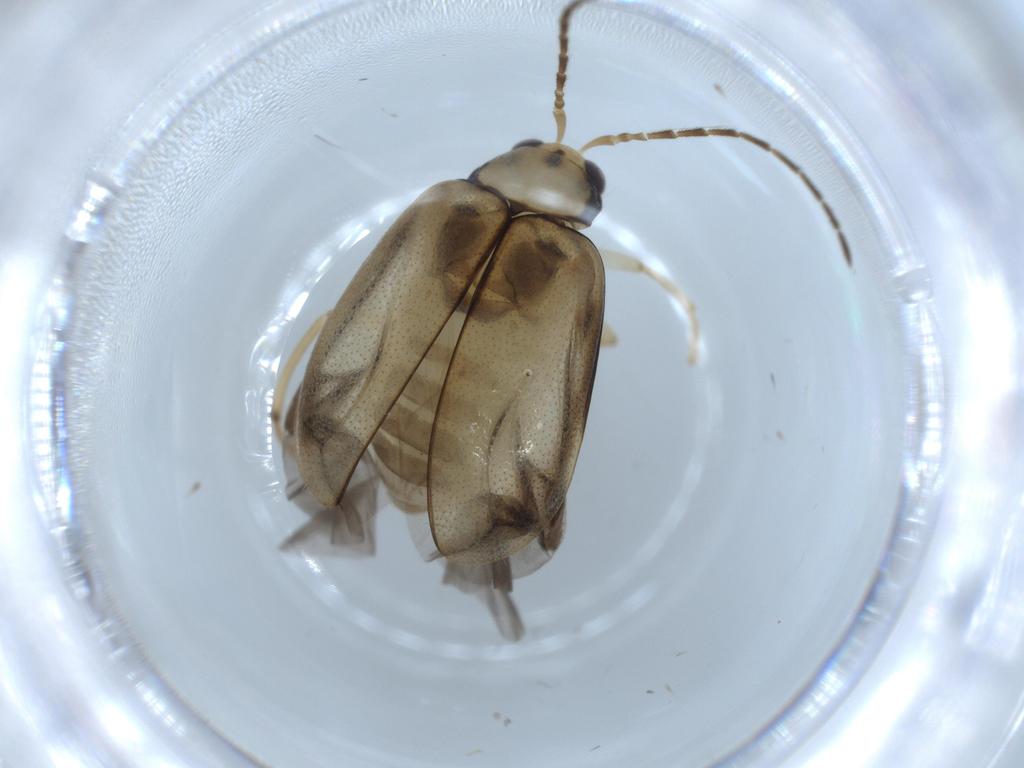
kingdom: Animalia
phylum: Arthropoda
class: Insecta
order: Coleoptera
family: Chrysomelidae
